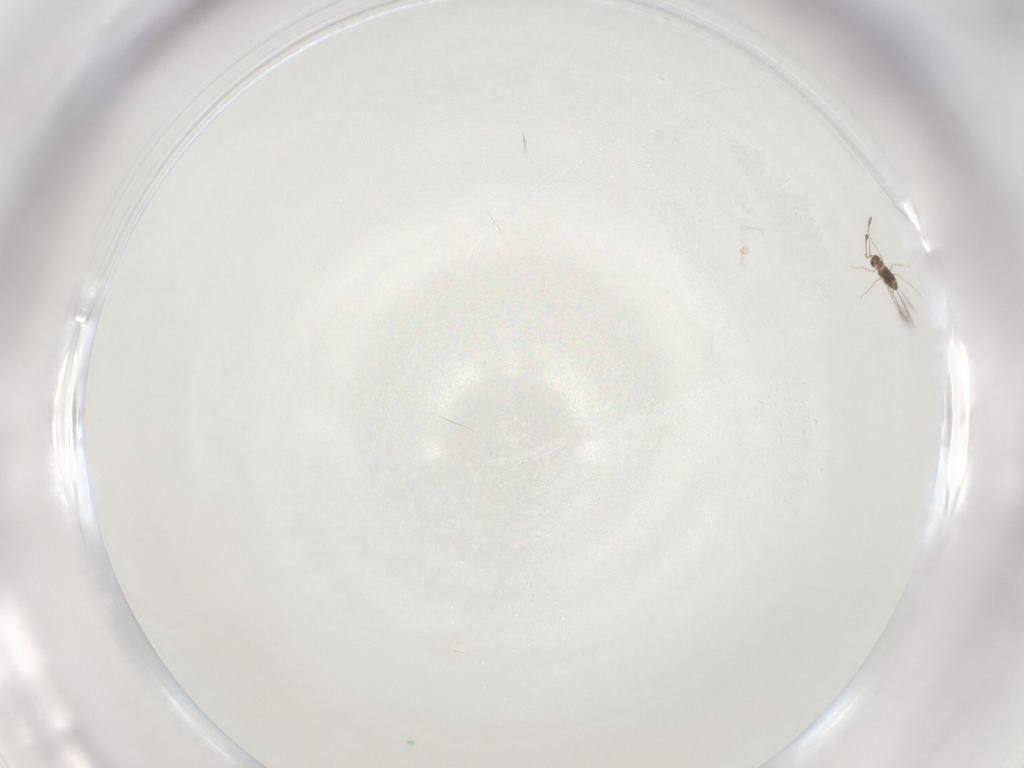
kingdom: Animalia
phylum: Arthropoda
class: Insecta
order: Hymenoptera
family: Mymaridae
